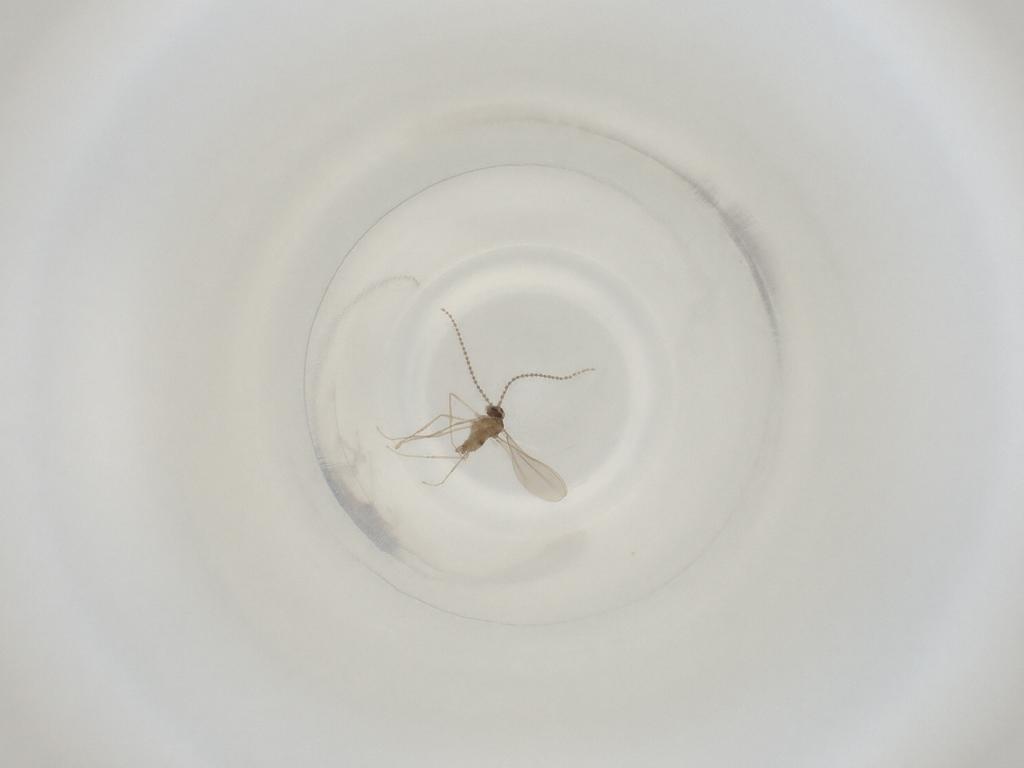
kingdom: Animalia
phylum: Arthropoda
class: Insecta
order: Diptera
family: Cecidomyiidae
